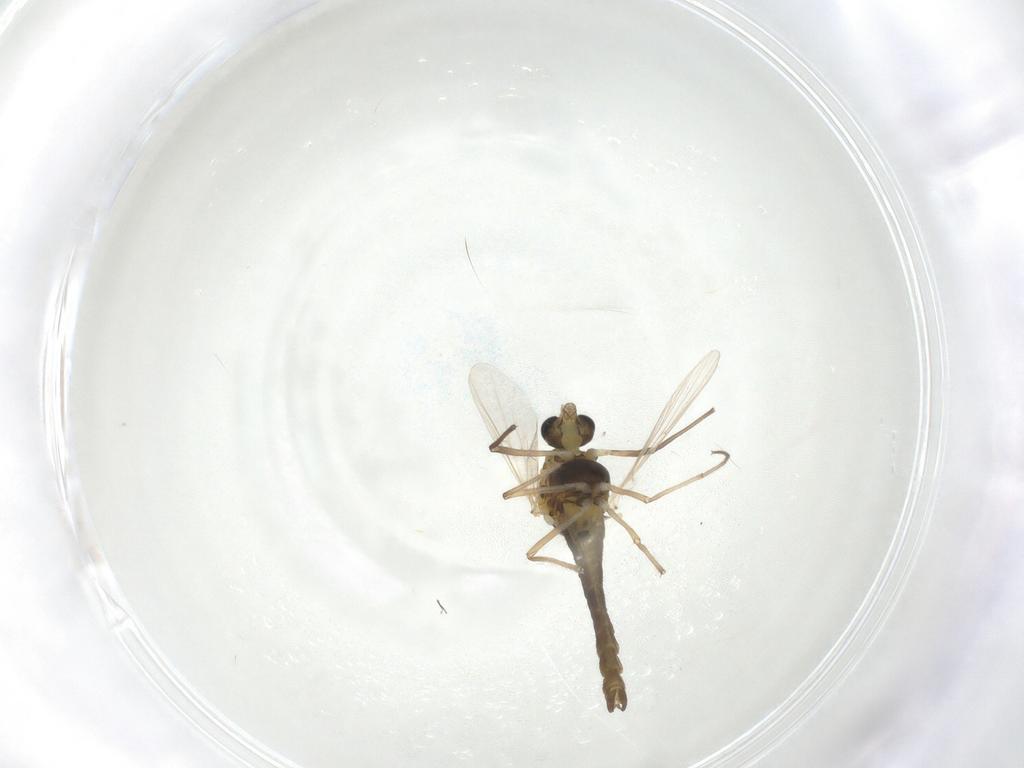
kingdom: Animalia
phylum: Arthropoda
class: Insecta
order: Diptera
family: Chironomidae
